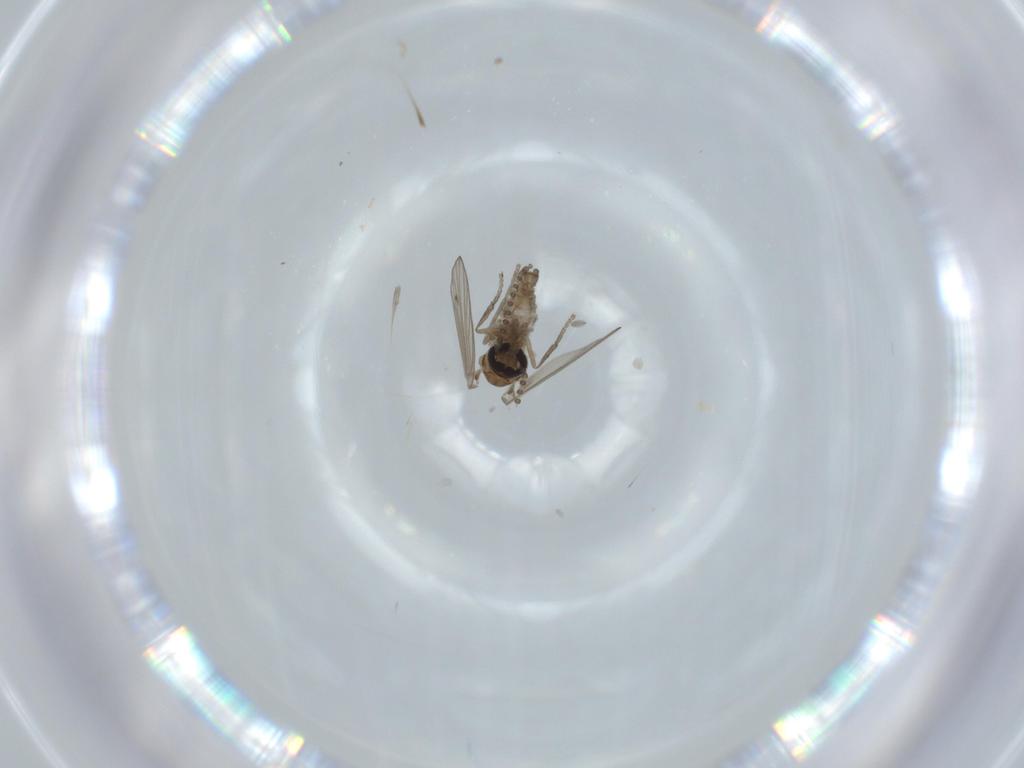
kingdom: Animalia
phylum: Arthropoda
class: Insecta
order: Diptera
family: Psychodidae
